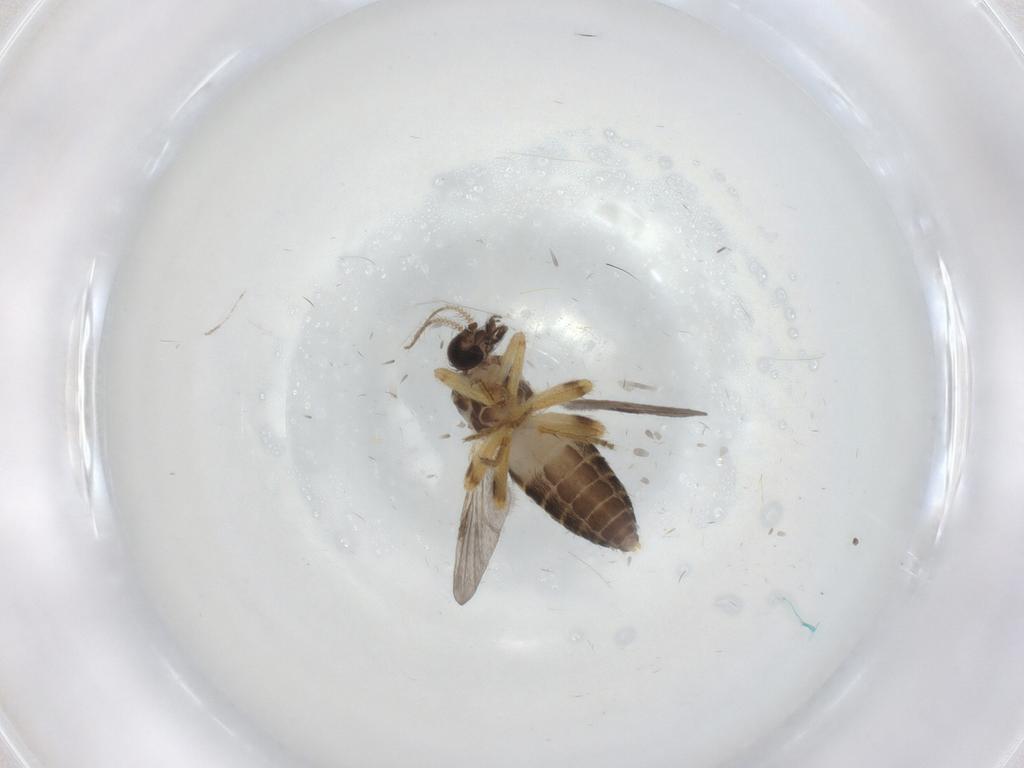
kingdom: Animalia
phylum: Arthropoda
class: Insecta
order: Diptera
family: Ceratopogonidae
